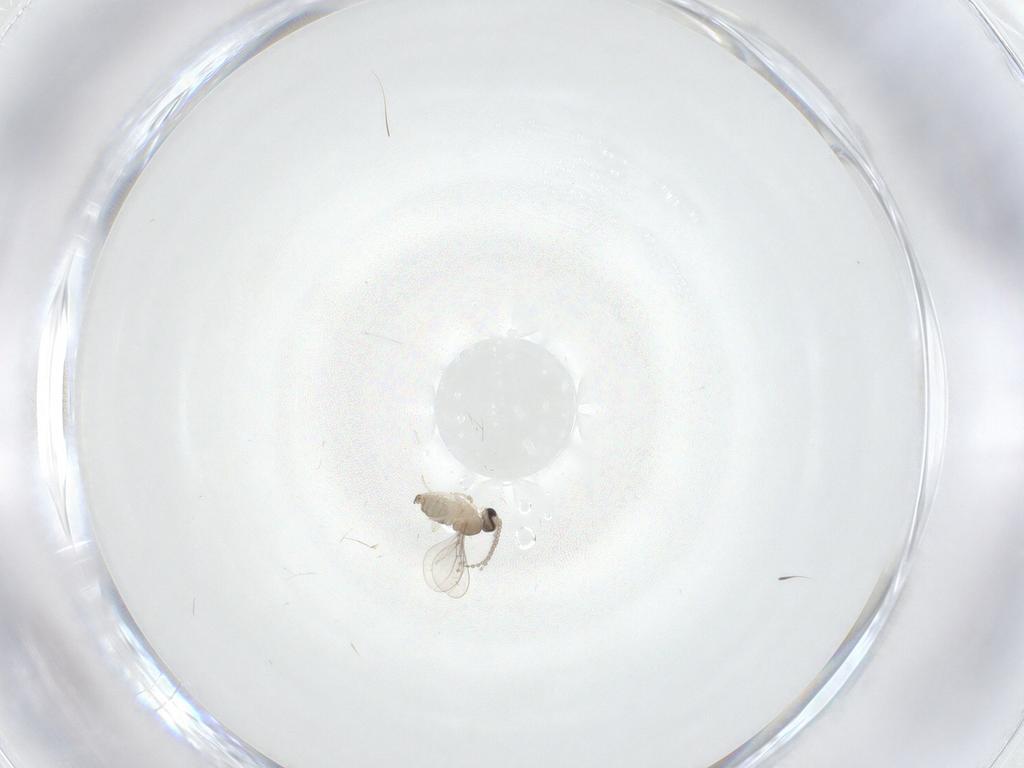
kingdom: Animalia
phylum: Arthropoda
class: Insecta
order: Diptera
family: Cecidomyiidae
